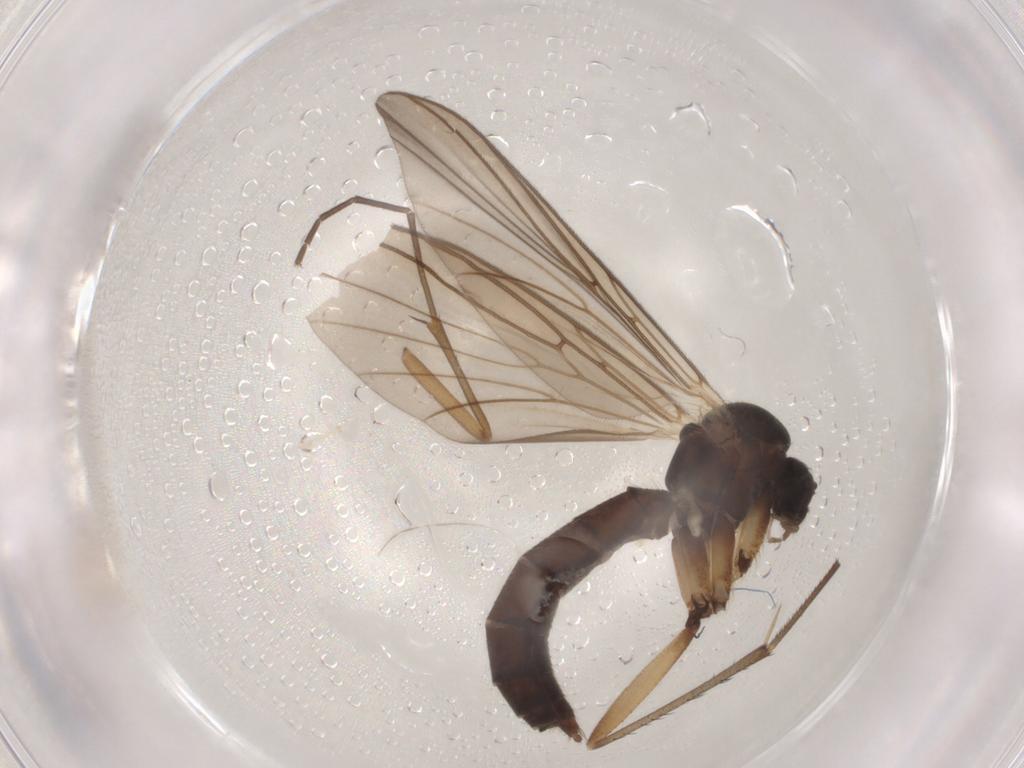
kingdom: Animalia
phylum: Arthropoda
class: Insecta
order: Diptera
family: Mycetophilidae
